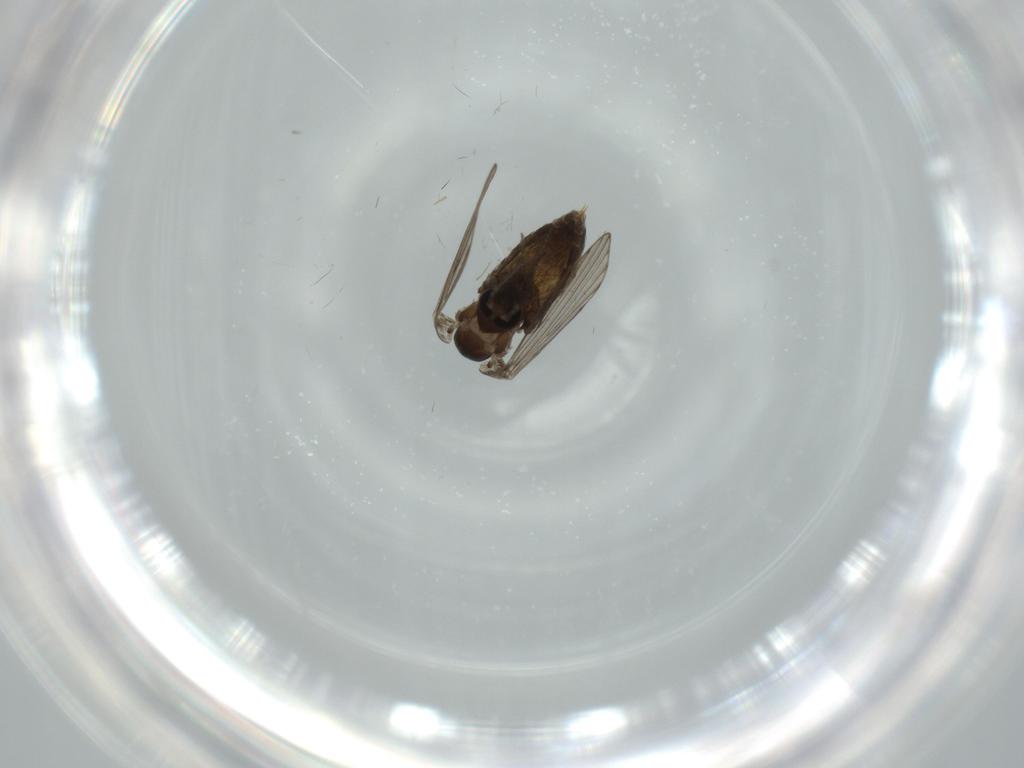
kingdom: Animalia
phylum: Arthropoda
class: Insecta
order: Diptera
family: Psychodidae
